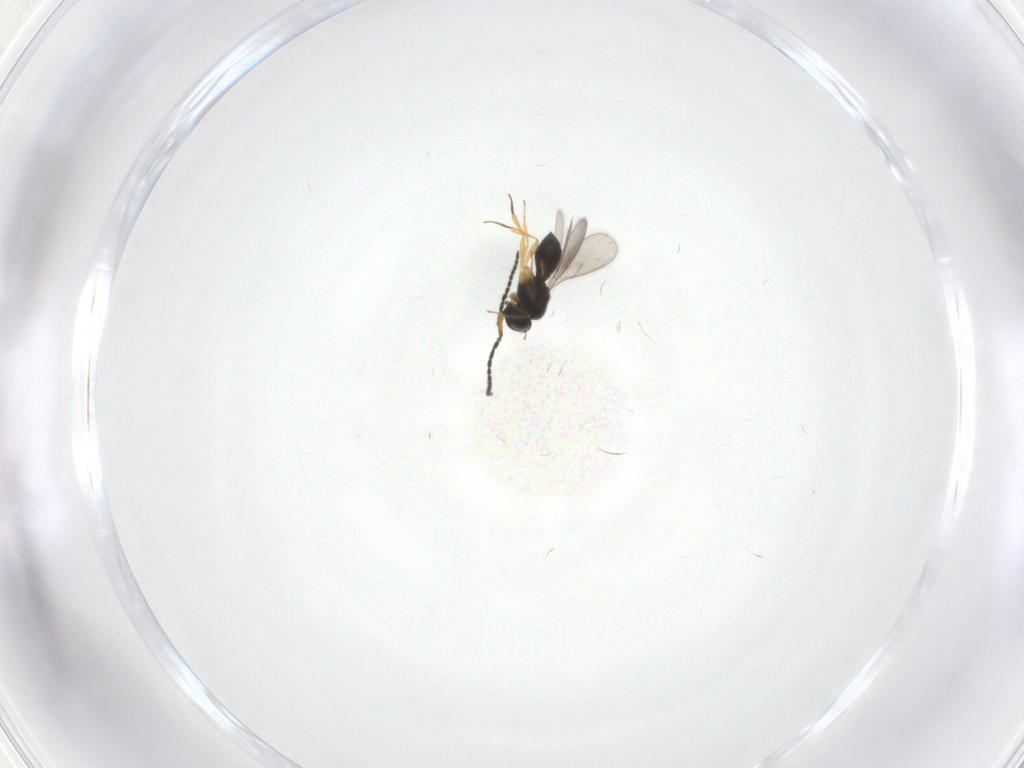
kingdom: Animalia
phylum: Arthropoda
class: Insecta
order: Hymenoptera
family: Scelionidae
